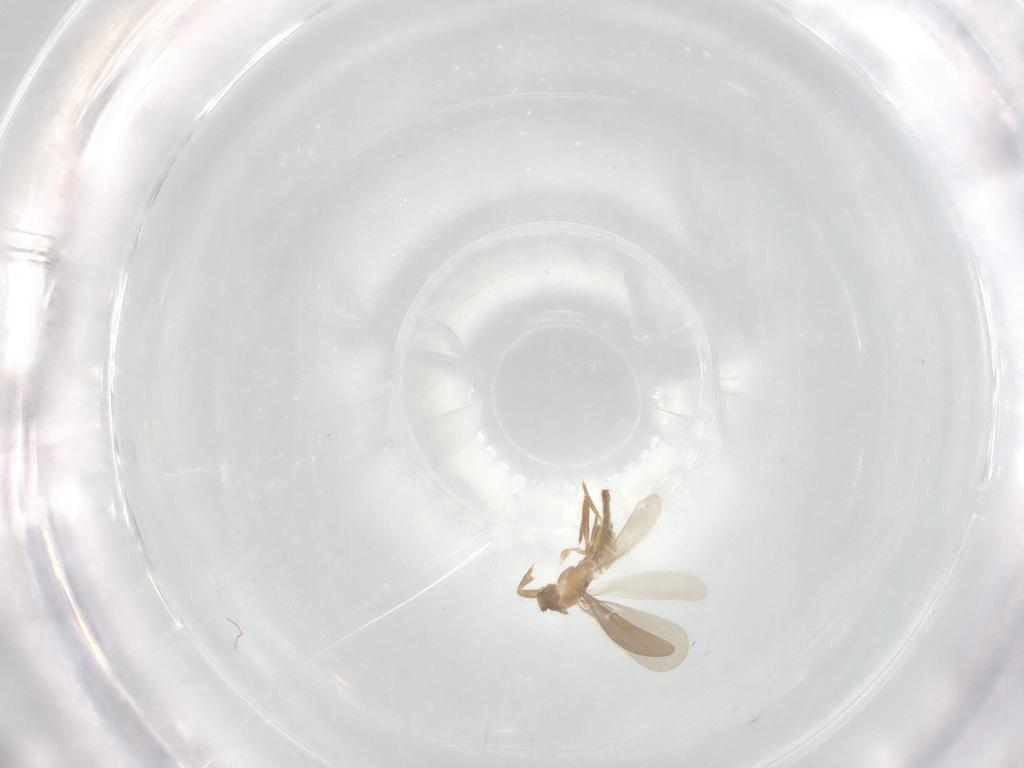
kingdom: Animalia
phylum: Arthropoda
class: Insecta
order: Hemiptera
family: Enicocephalidae
